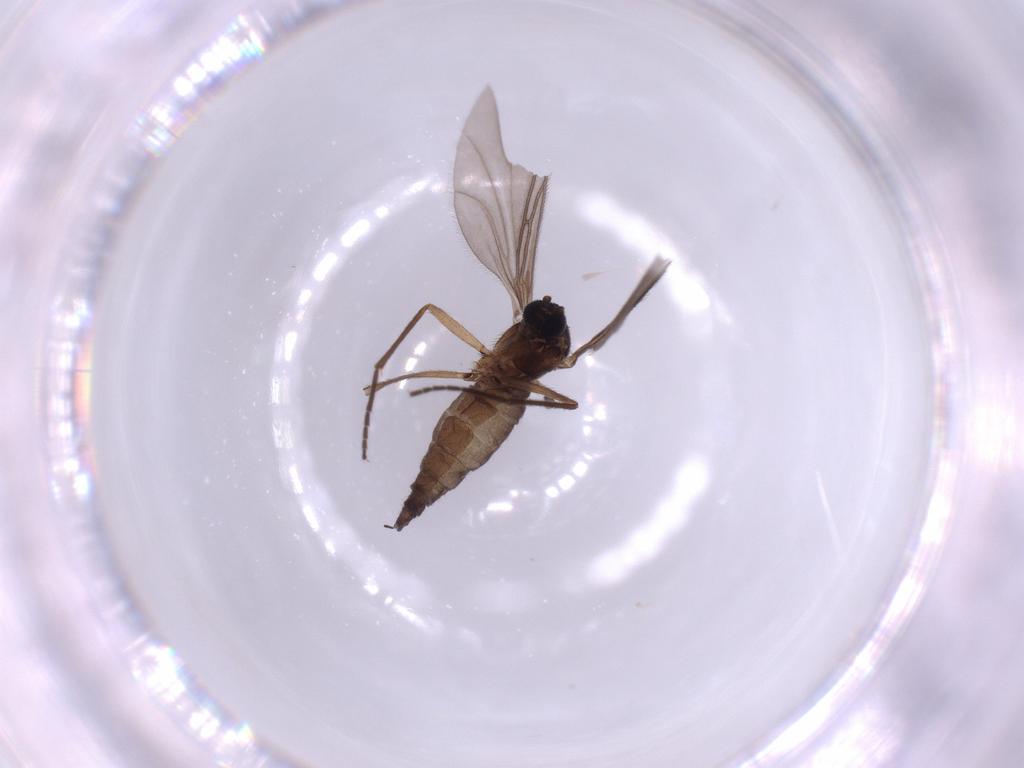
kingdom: Animalia
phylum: Arthropoda
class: Insecta
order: Diptera
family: Sciaridae
